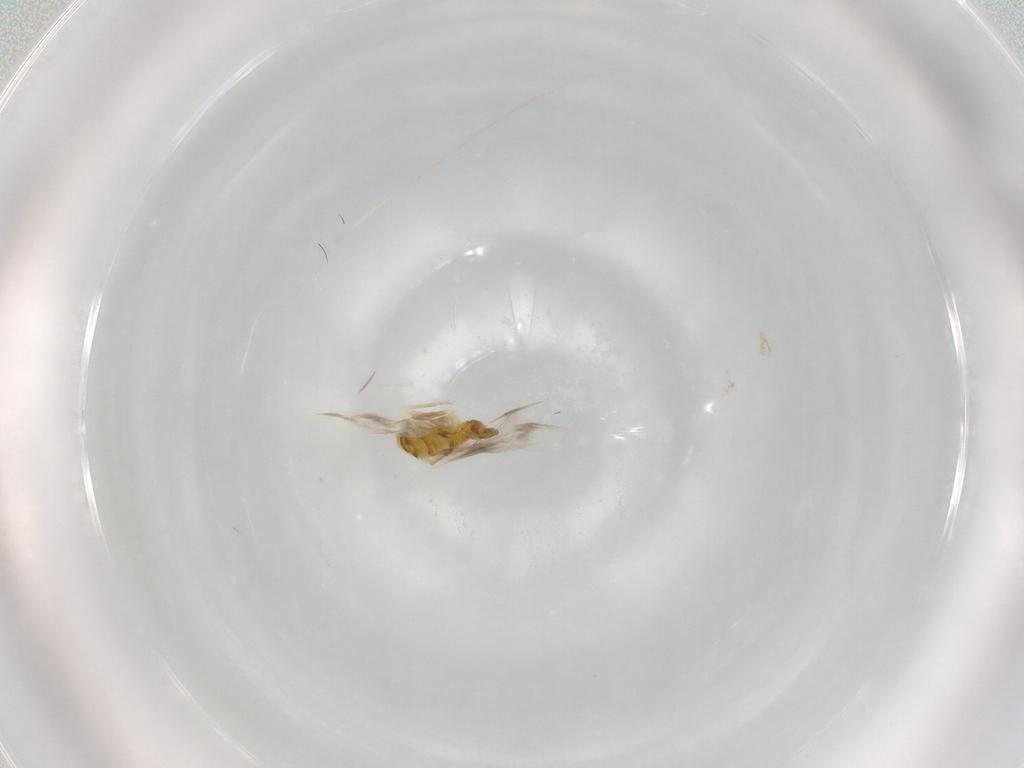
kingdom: Animalia
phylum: Arthropoda
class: Insecta
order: Hemiptera
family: Aleyrodidae
